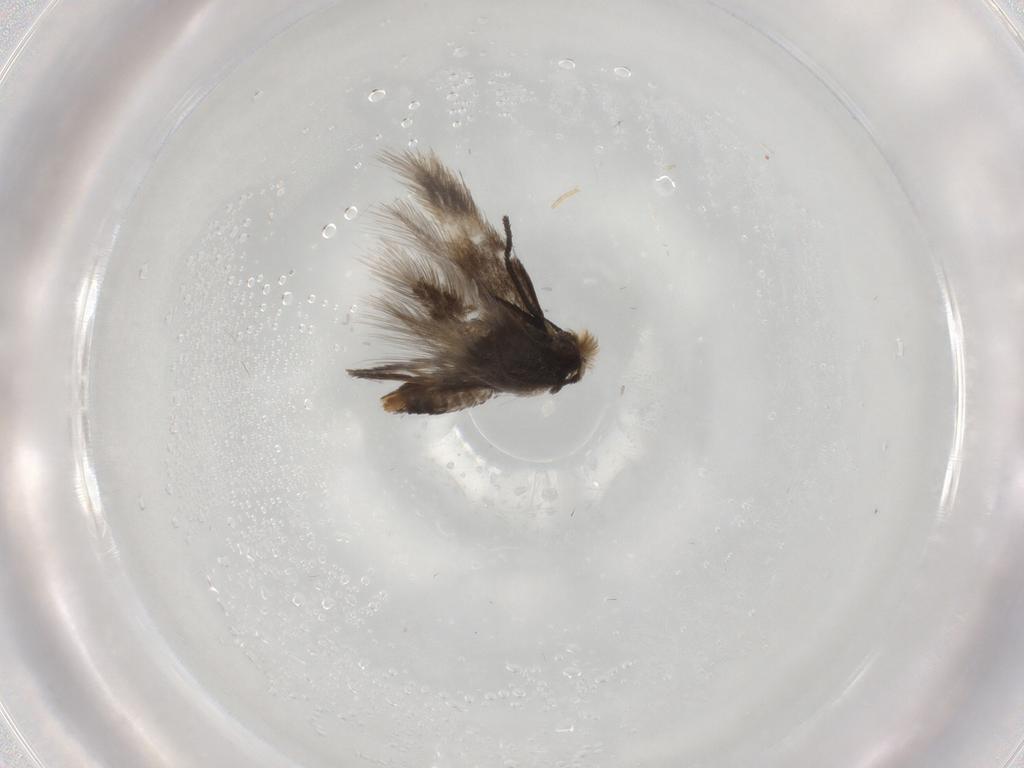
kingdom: Animalia
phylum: Arthropoda
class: Insecta
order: Lepidoptera
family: Nepticulidae
